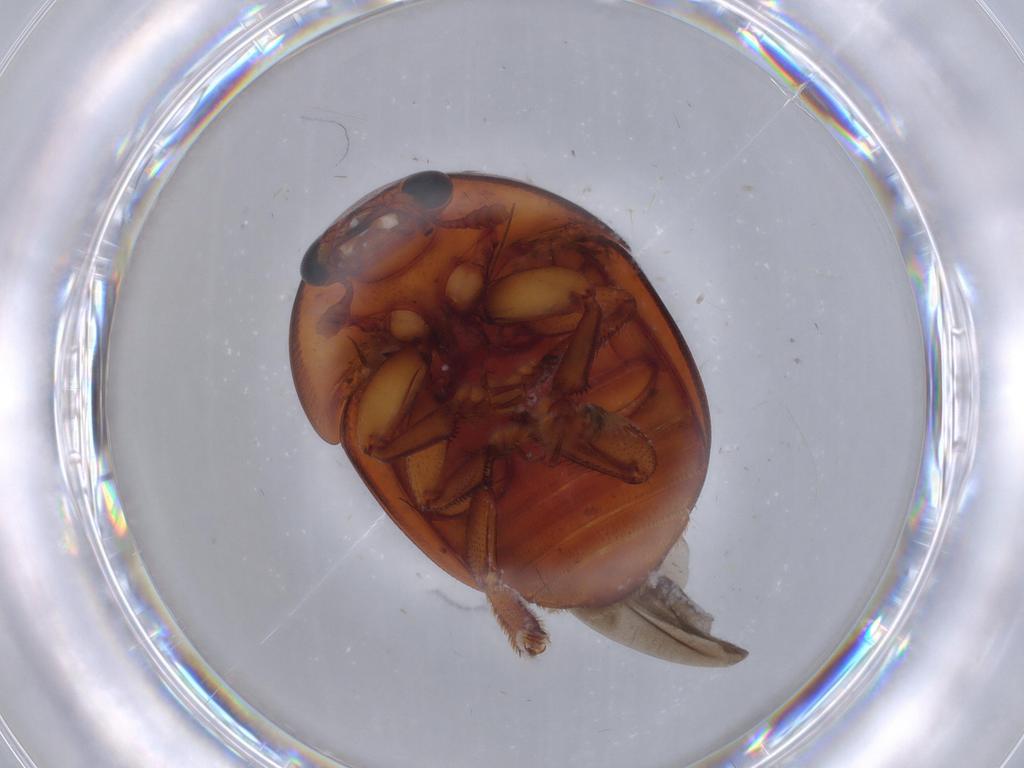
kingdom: Animalia
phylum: Arthropoda
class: Insecta
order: Coleoptera
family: Nitidulidae
